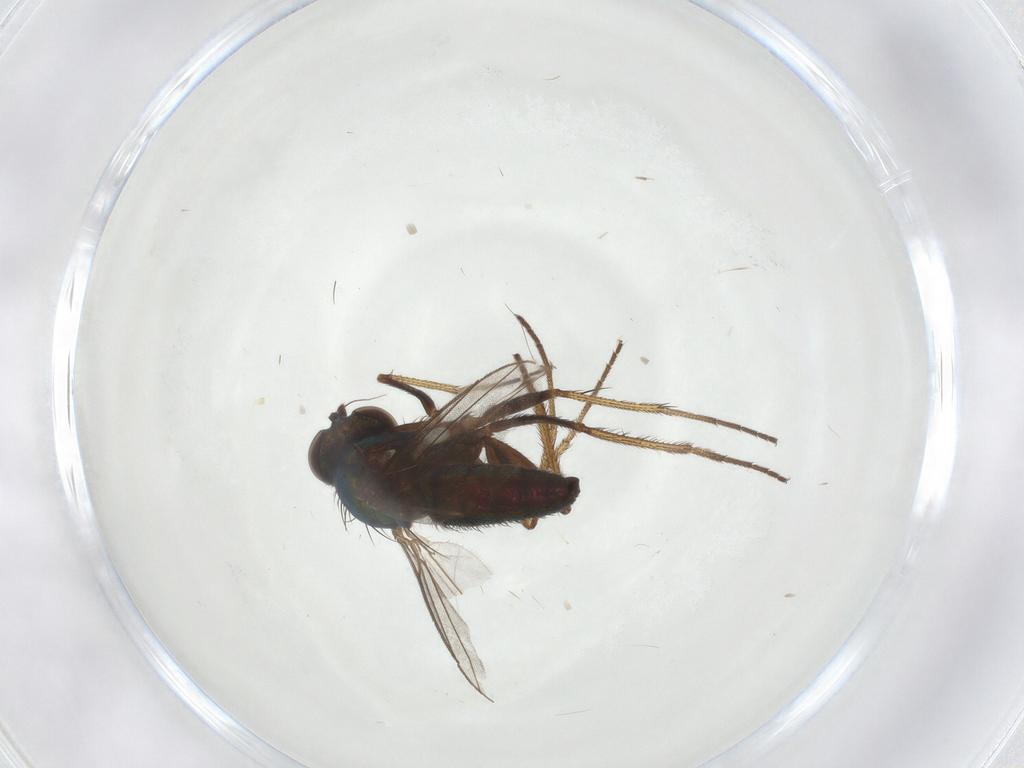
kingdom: Animalia
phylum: Arthropoda
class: Insecta
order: Diptera
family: Dolichopodidae
